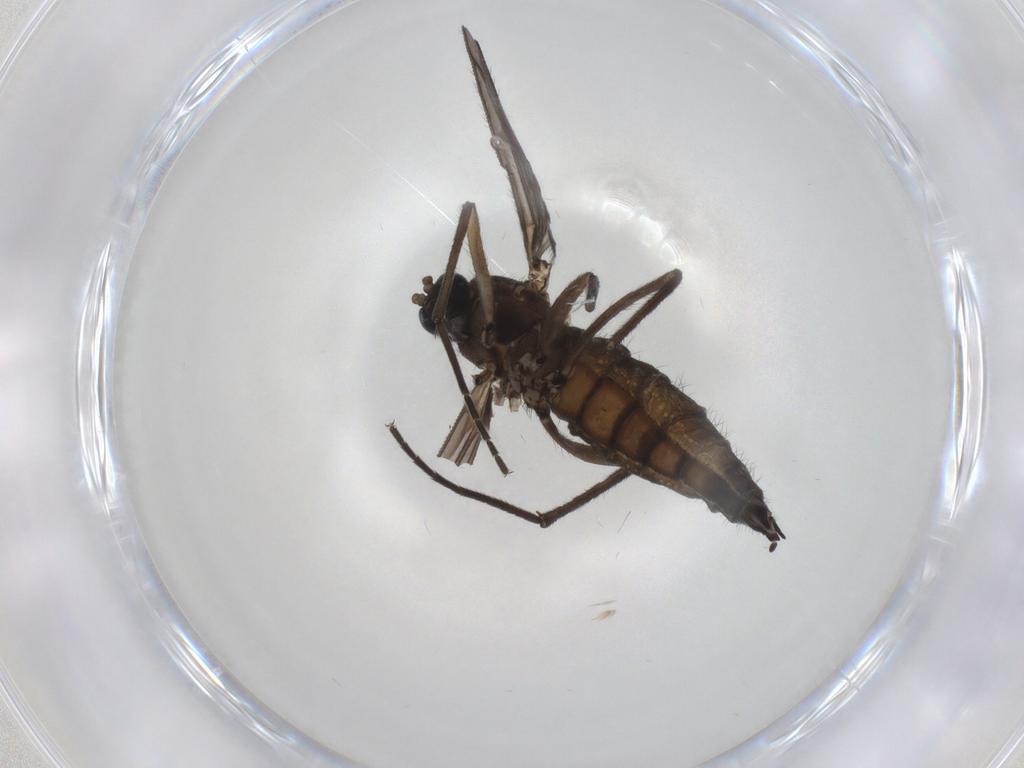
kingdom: Animalia
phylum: Arthropoda
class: Insecta
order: Diptera
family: Sciaridae
